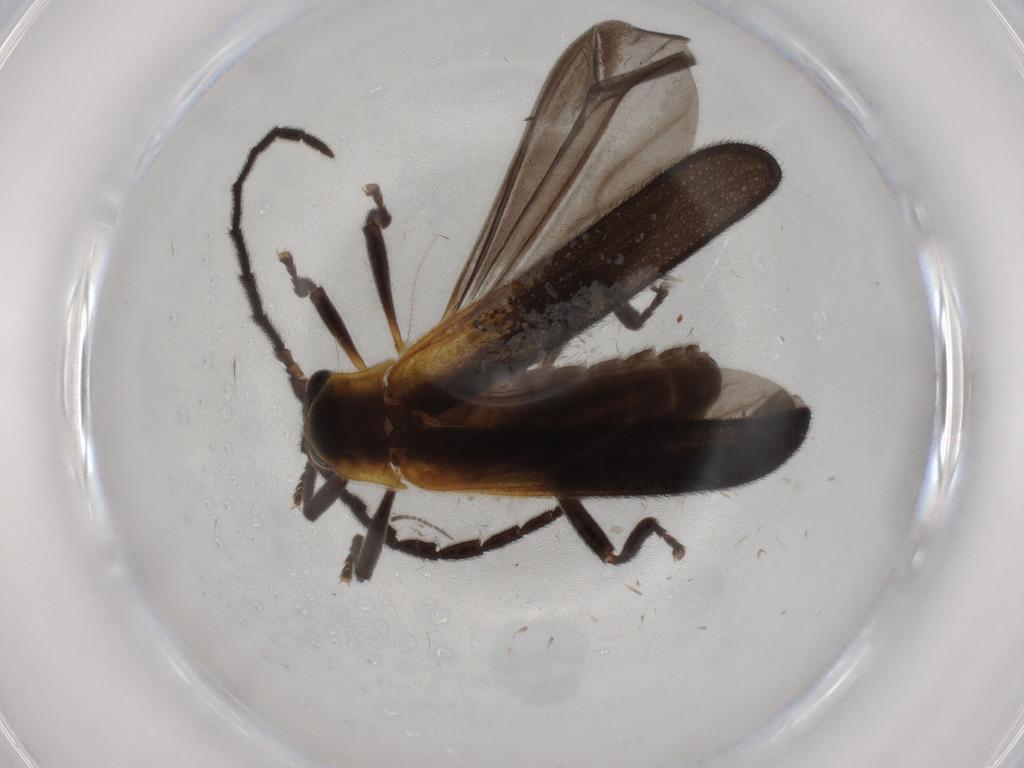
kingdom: Animalia
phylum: Arthropoda
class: Insecta
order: Coleoptera
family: Lycidae
